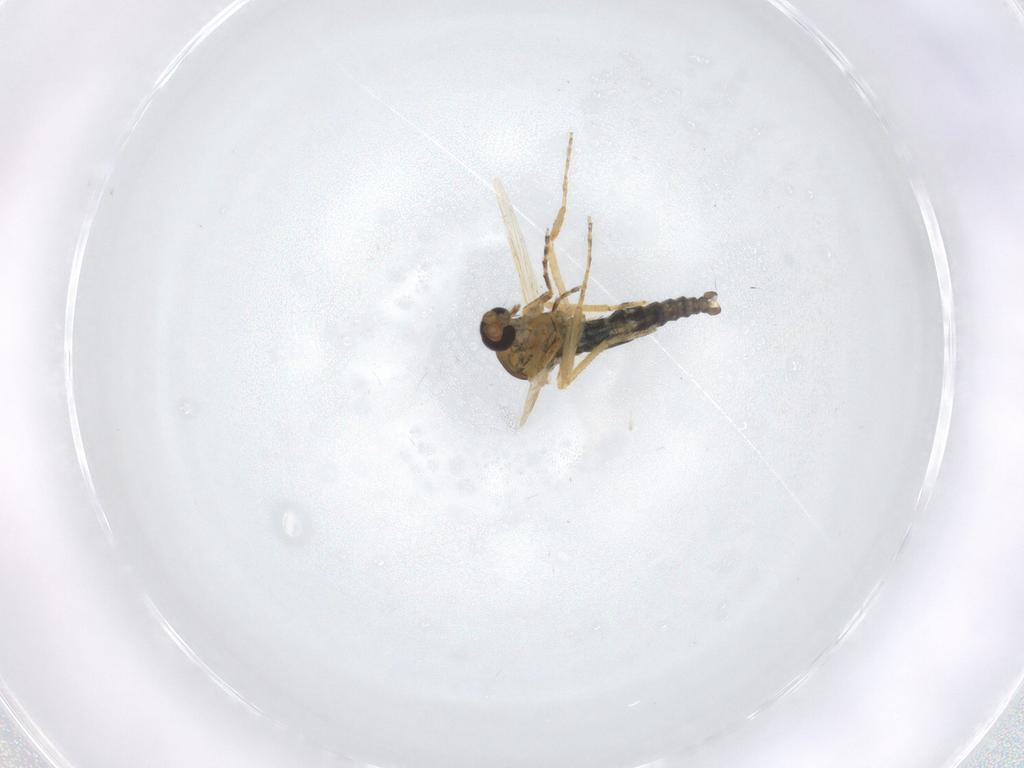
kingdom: Animalia
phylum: Arthropoda
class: Insecta
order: Diptera
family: Ceratopogonidae
